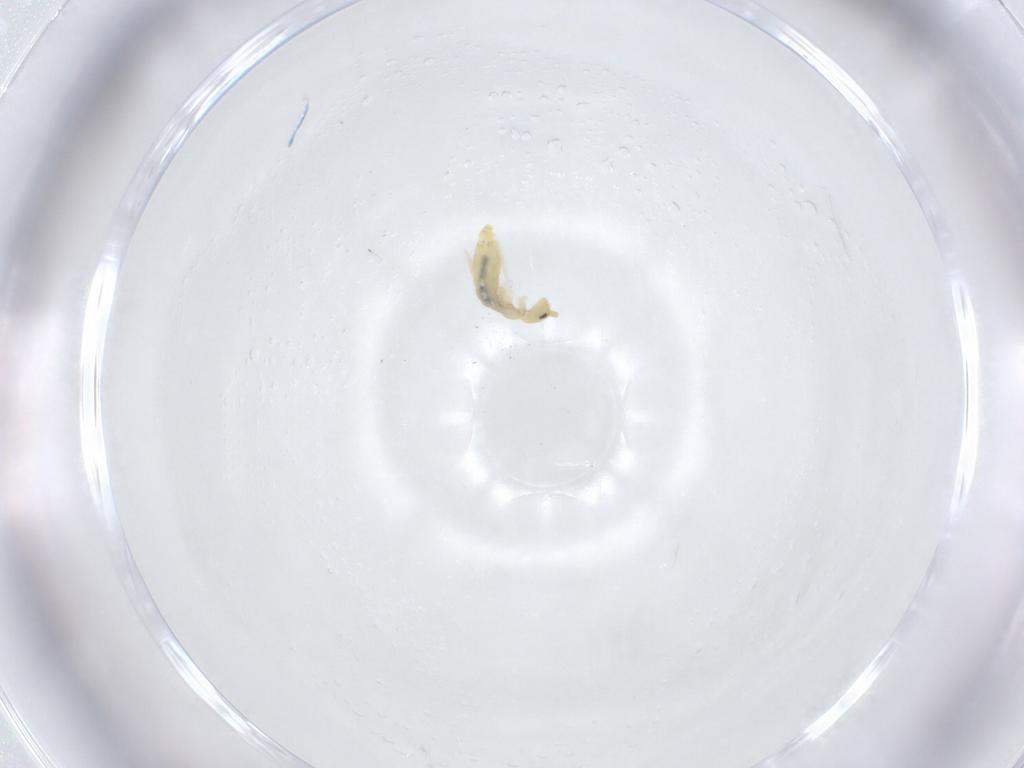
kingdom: Animalia
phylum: Arthropoda
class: Collembola
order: Entomobryomorpha
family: Entomobryidae
